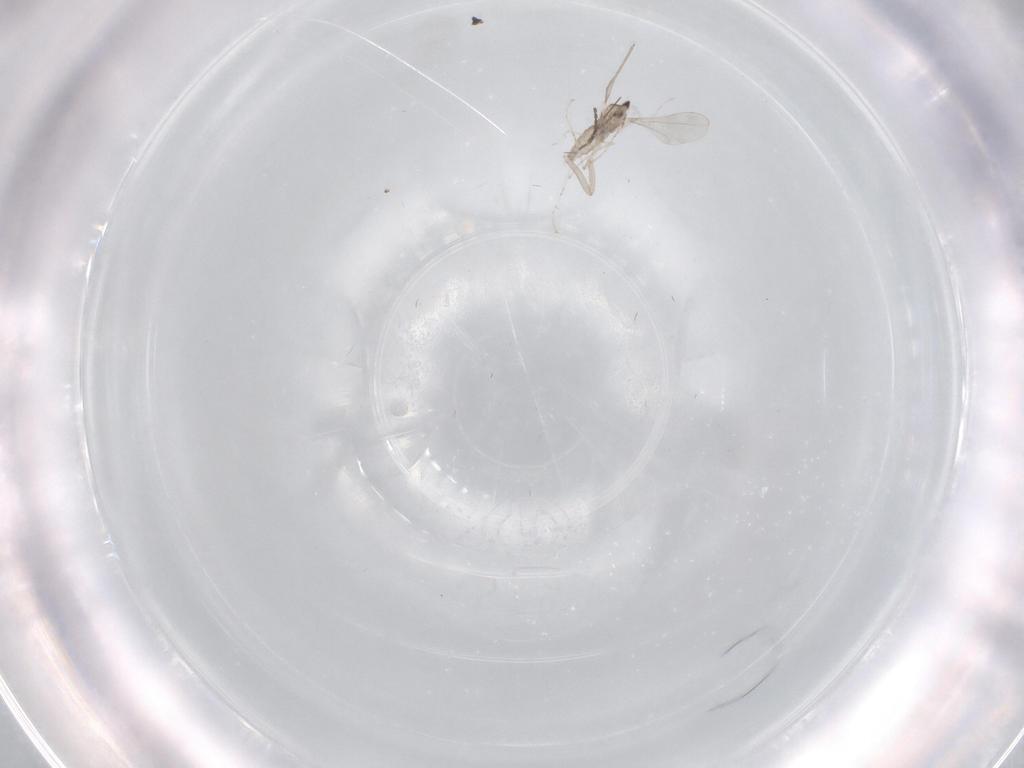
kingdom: Animalia
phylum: Arthropoda
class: Insecta
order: Diptera
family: Cecidomyiidae
